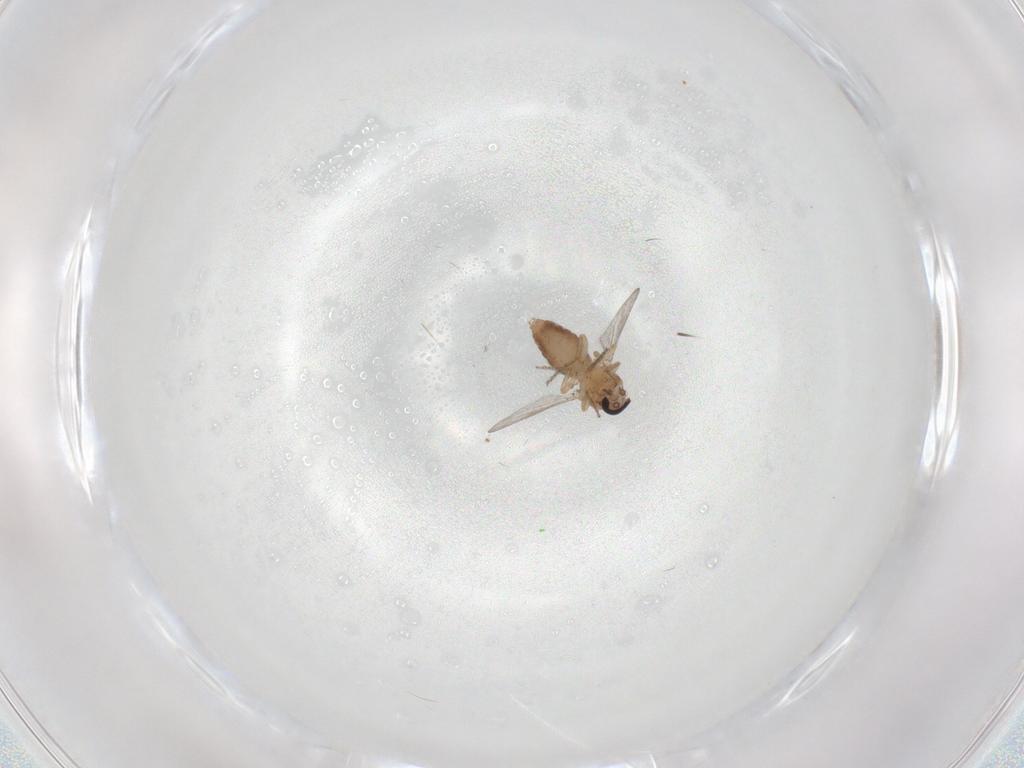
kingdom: Animalia
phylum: Arthropoda
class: Insecta
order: Diptera
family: Ceratopogonidae
